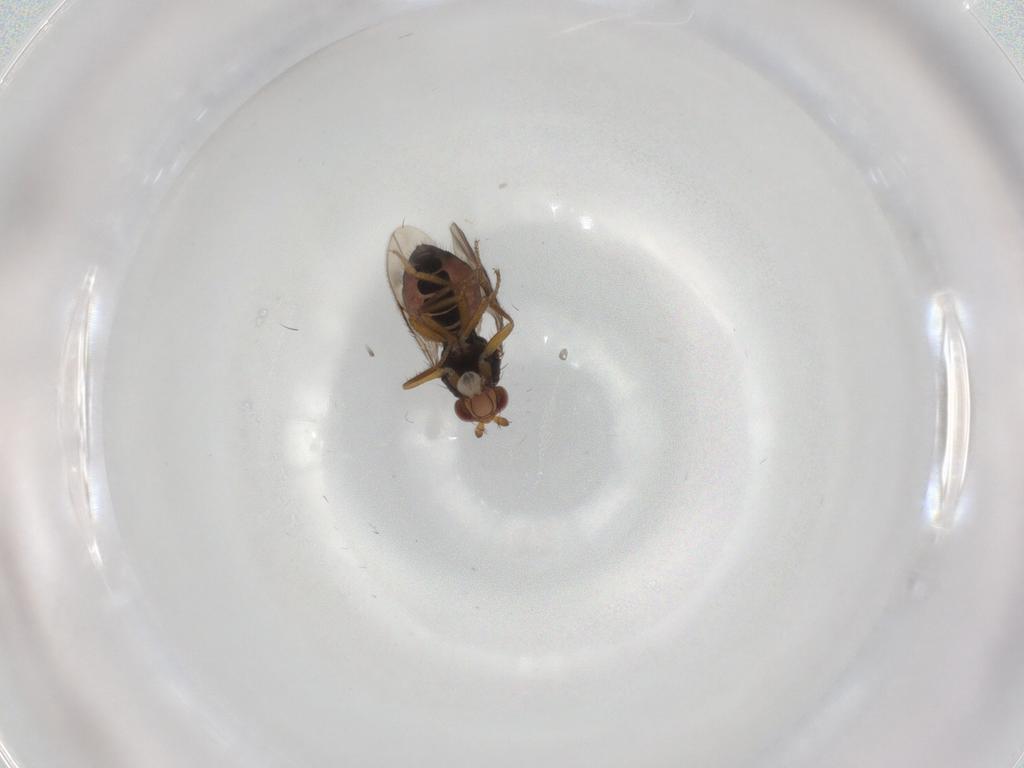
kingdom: Animalia
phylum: Arthropoda
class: Insecta
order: Diptera
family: Sphaeroceridae
